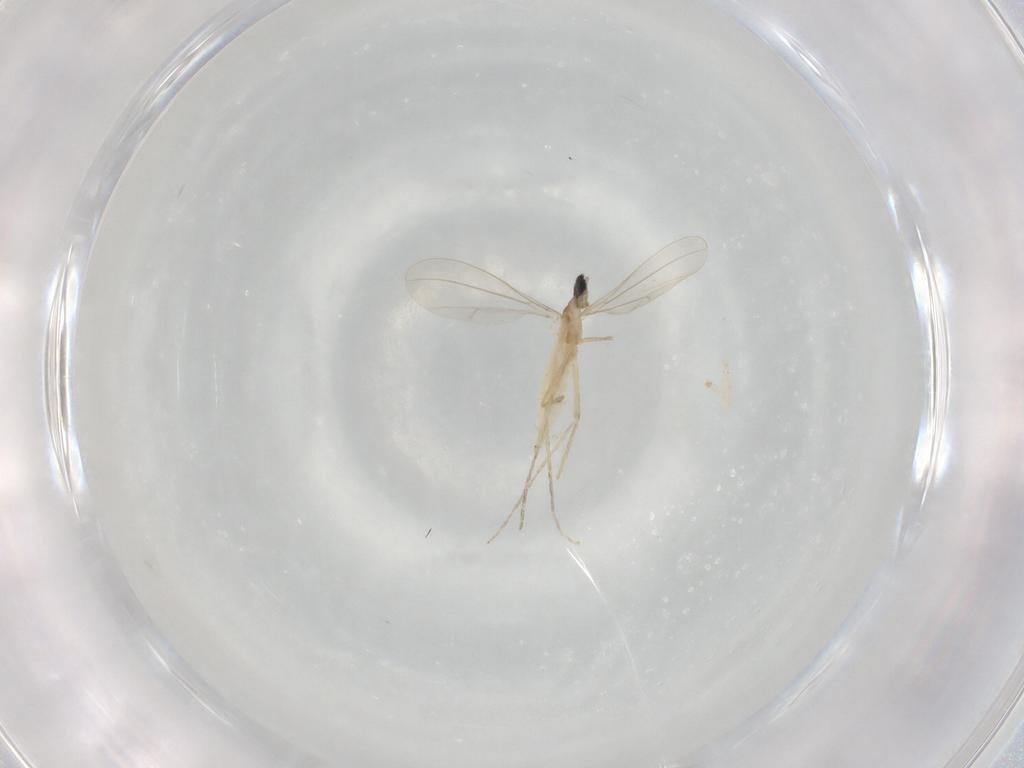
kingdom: Animalia
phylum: Arthropoda
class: Insecta
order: Diptera
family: Cecidomyiidae
